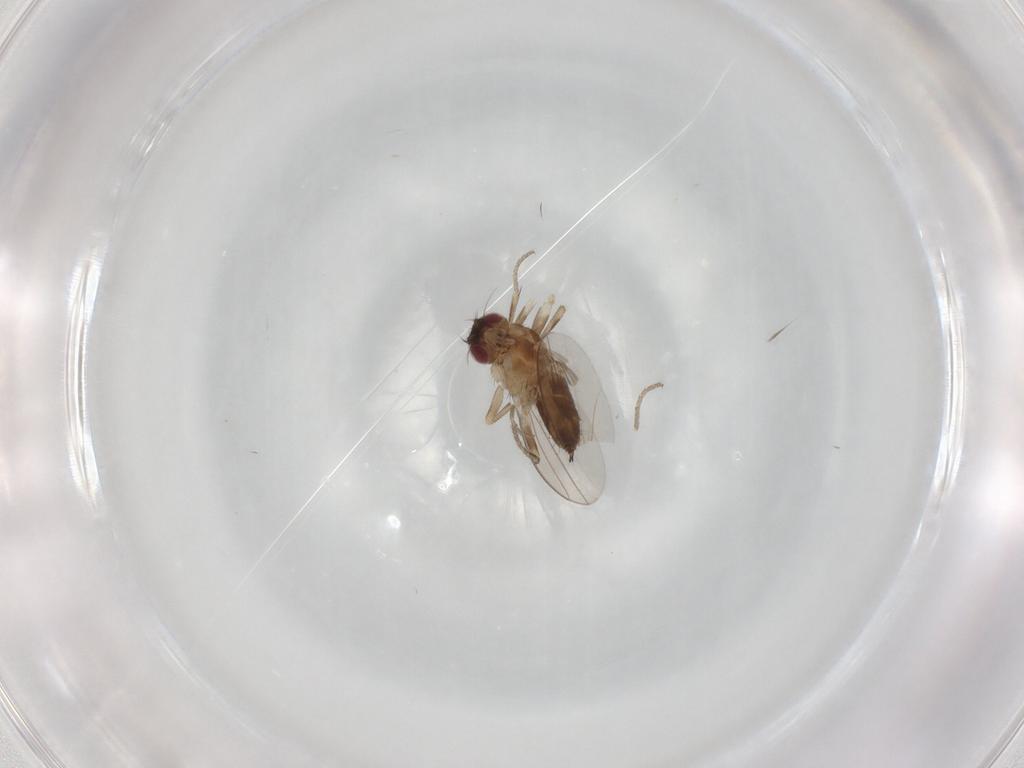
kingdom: Animalia
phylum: Arthropoda
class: Insecta
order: Diptera
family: Milichiidae
